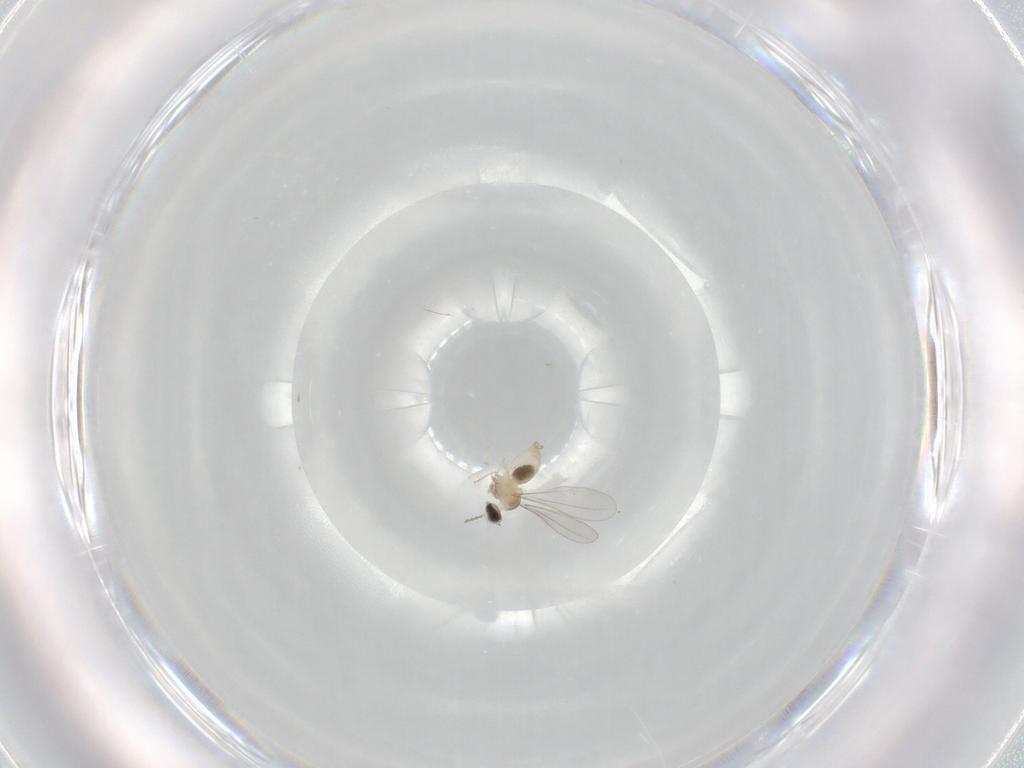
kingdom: Animalia
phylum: Arthropoda
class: Insecta
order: Diptera
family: Cecidomyiidae
